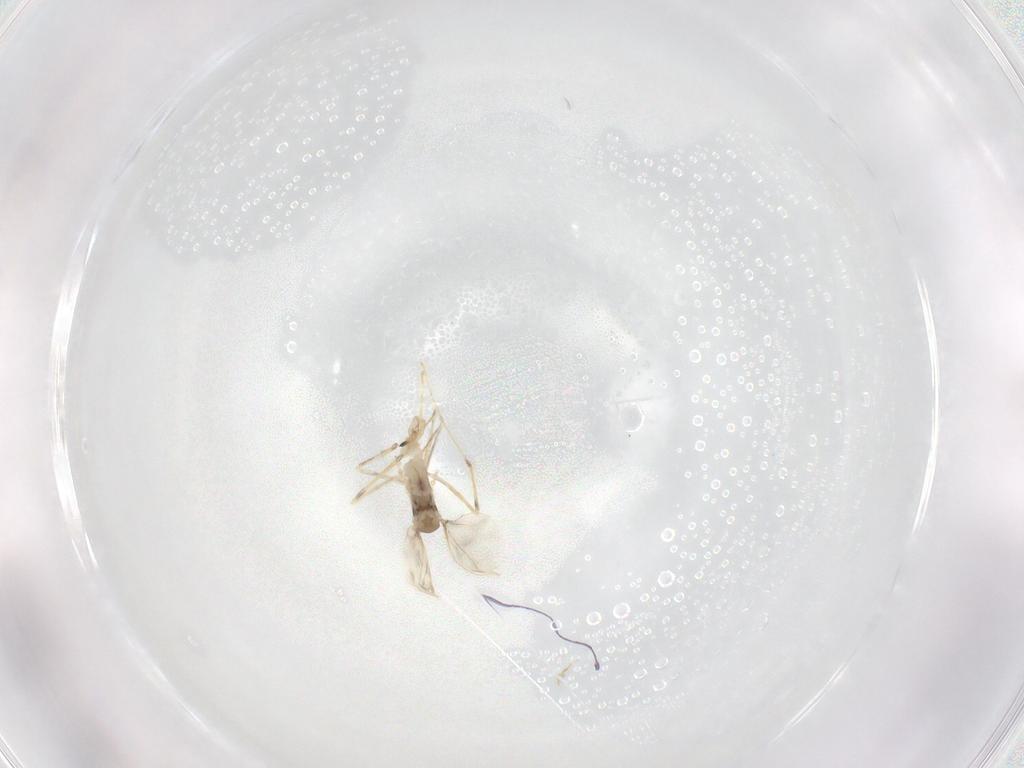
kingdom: Animalia
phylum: Arthropoda
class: Insecta
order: Diptera
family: Cecidomyiidae
